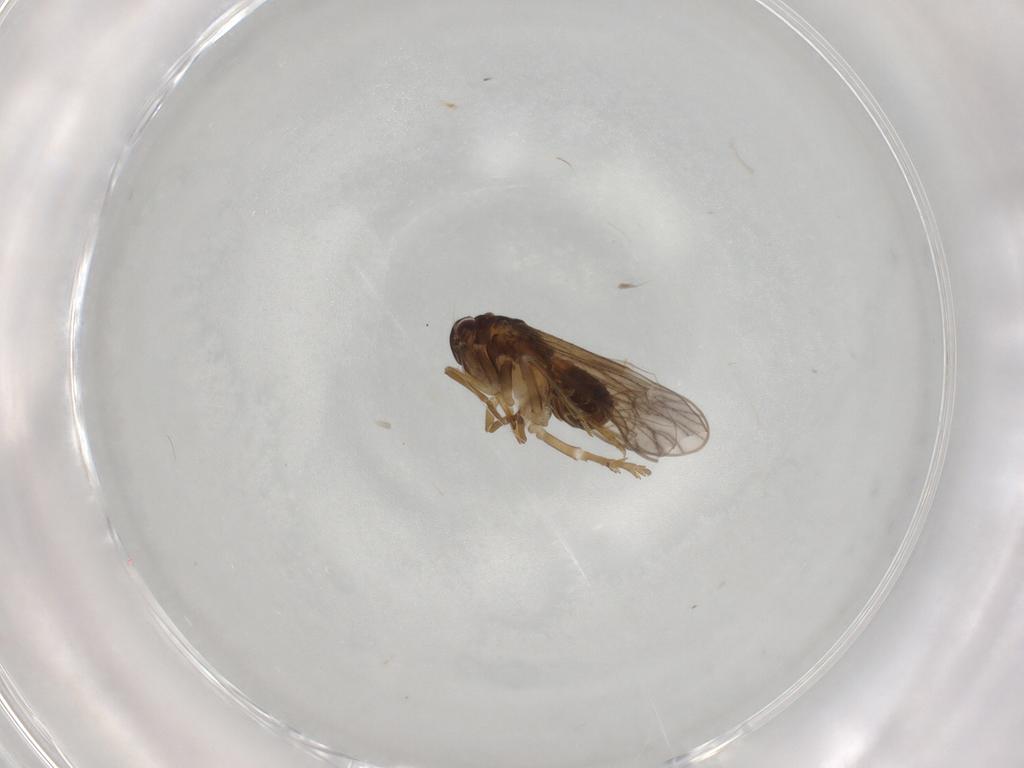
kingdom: Animalia
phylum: Arthropoda
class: Insecta
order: Hemiptera
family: Delphacidae
